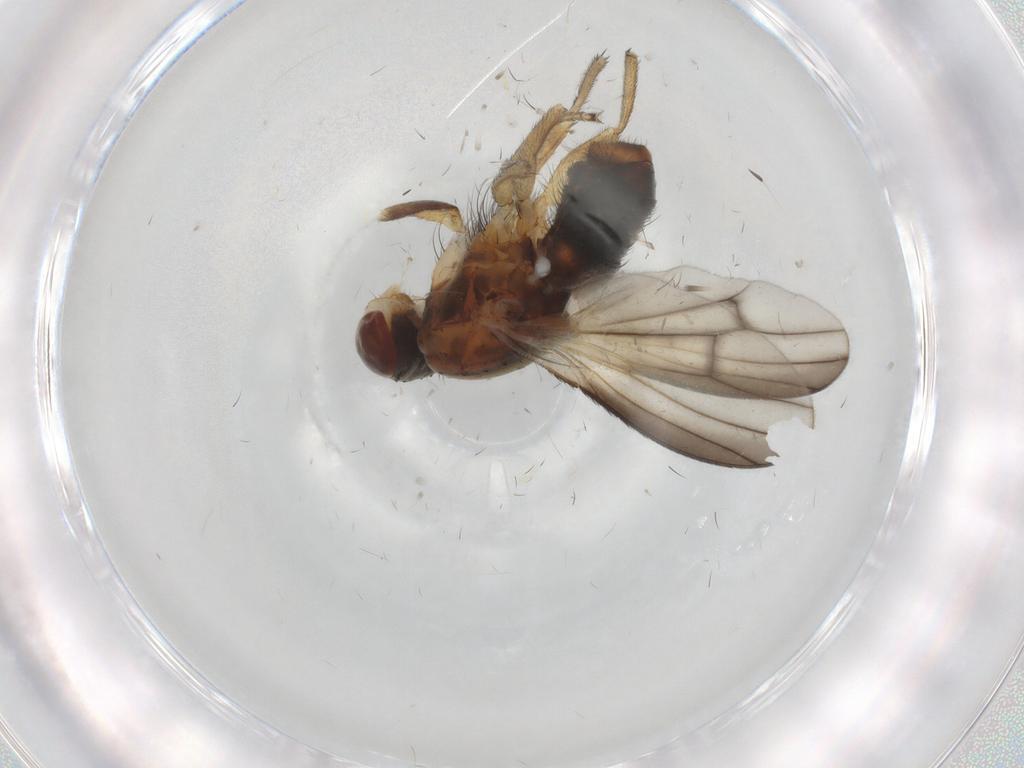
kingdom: Animalia
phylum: Arthropoda
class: Insecta
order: Diptera
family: Heleomyzidae
